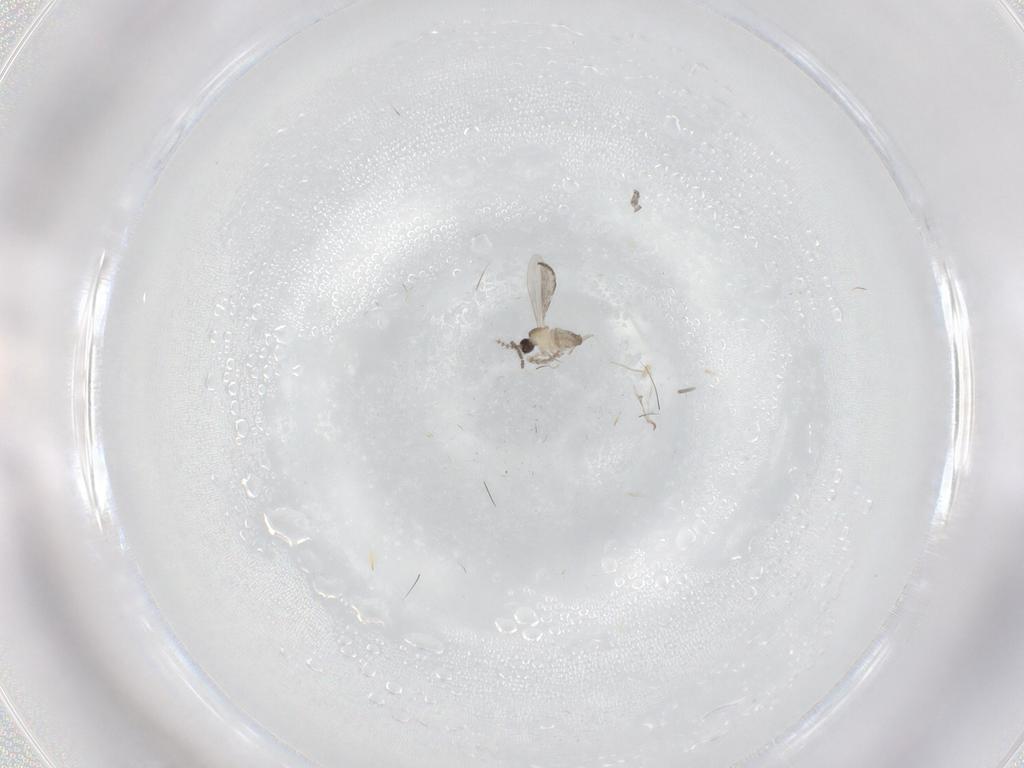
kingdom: Animalia
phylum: Arthropoda
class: Insecta
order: Diptera
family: Cecidomyiidae
